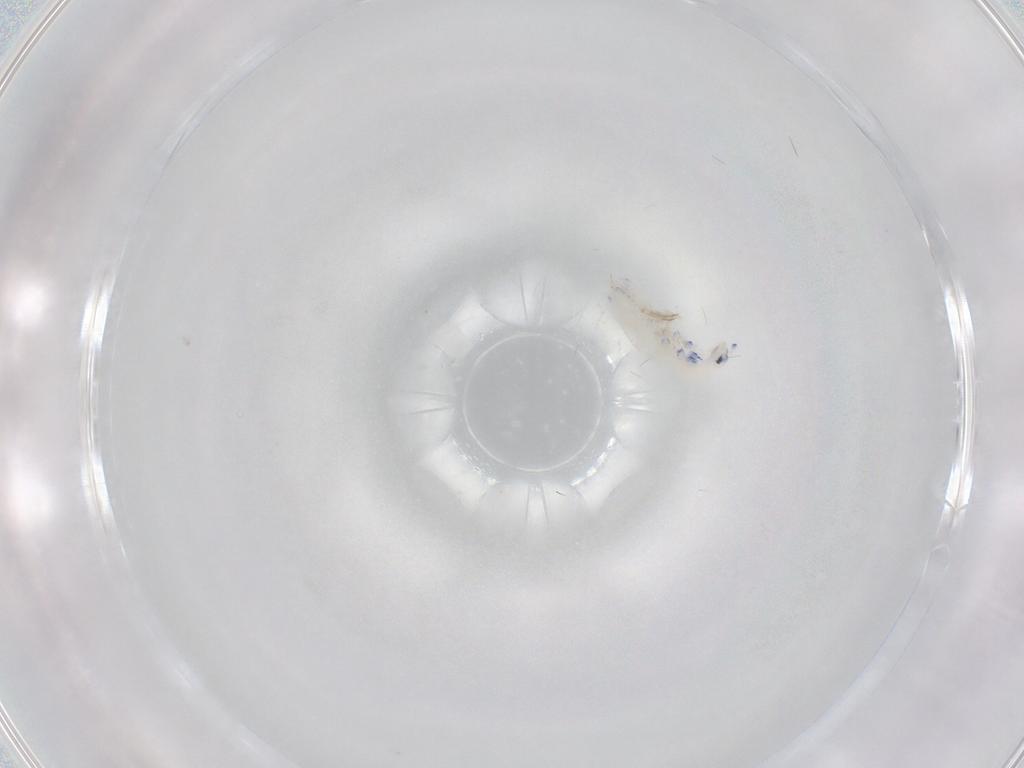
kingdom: Animalia
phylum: Arthropoda
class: Collembola
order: Entomobryomorpha
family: Entomobryidae
